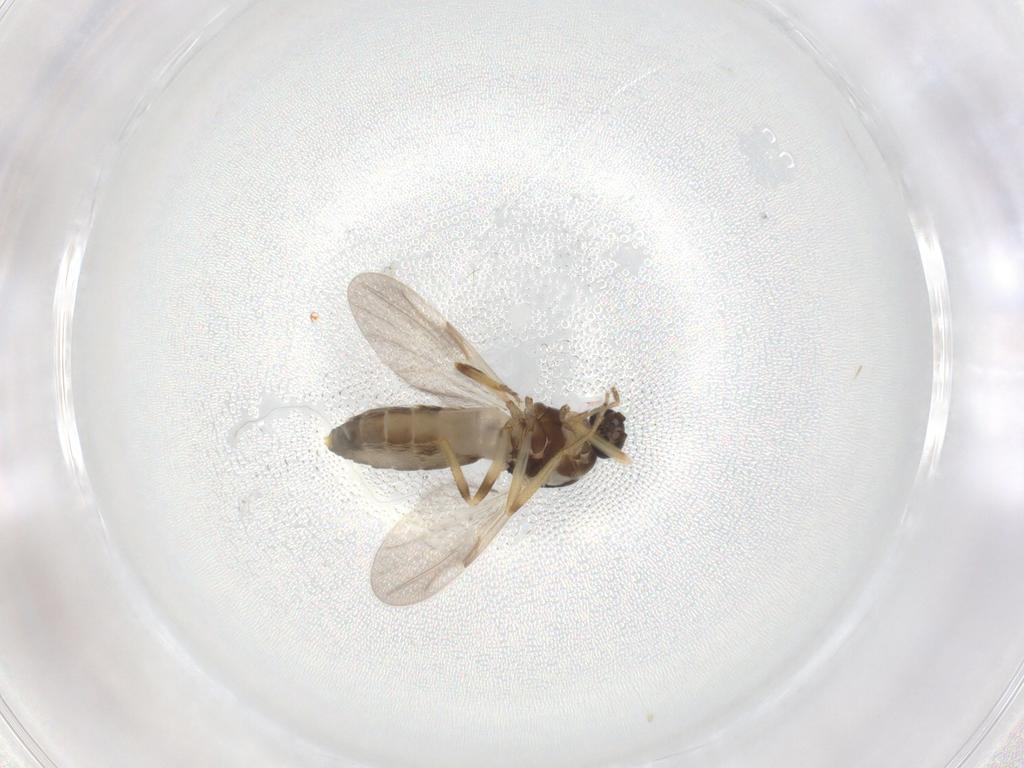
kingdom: Animalia
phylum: Arthropoda
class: Insecta
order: Diptera
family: Ceratopogonidae
